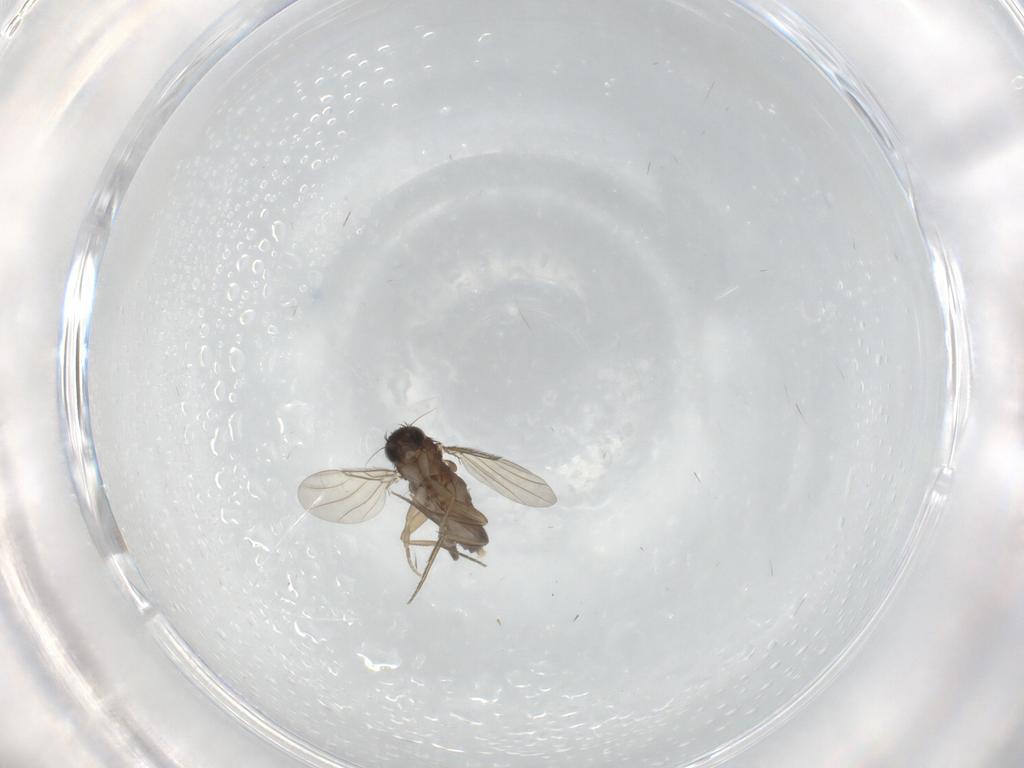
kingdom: Animalia
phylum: Arthropoda
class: Insecta
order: Diptera
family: Phoridae
